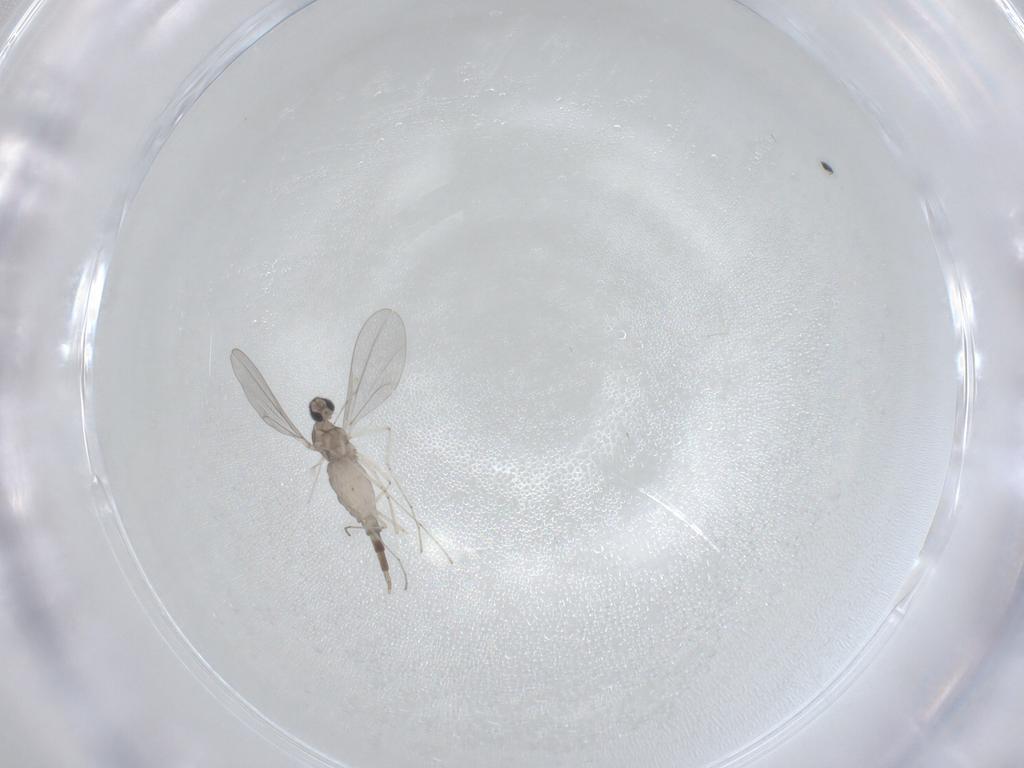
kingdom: Animalia
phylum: Arthropoda
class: Insecta
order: Diptera
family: Cecidomyiidae
